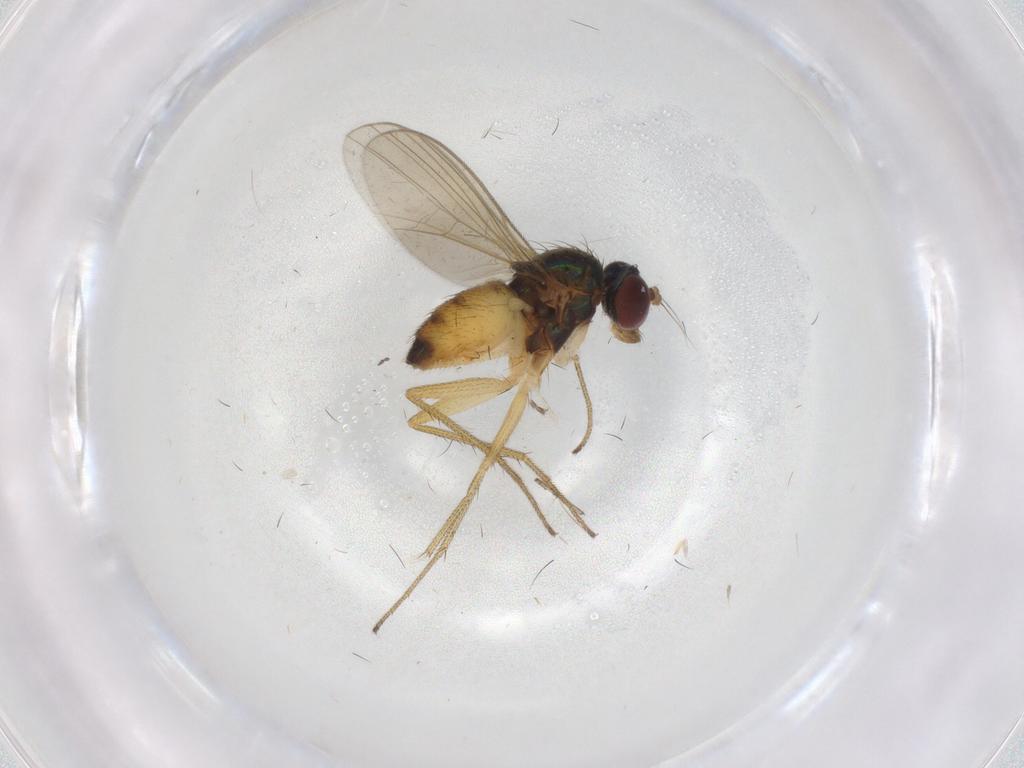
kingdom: Animalia
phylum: Arthropoda
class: Insecta
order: Diptera
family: Dolichopodidae
